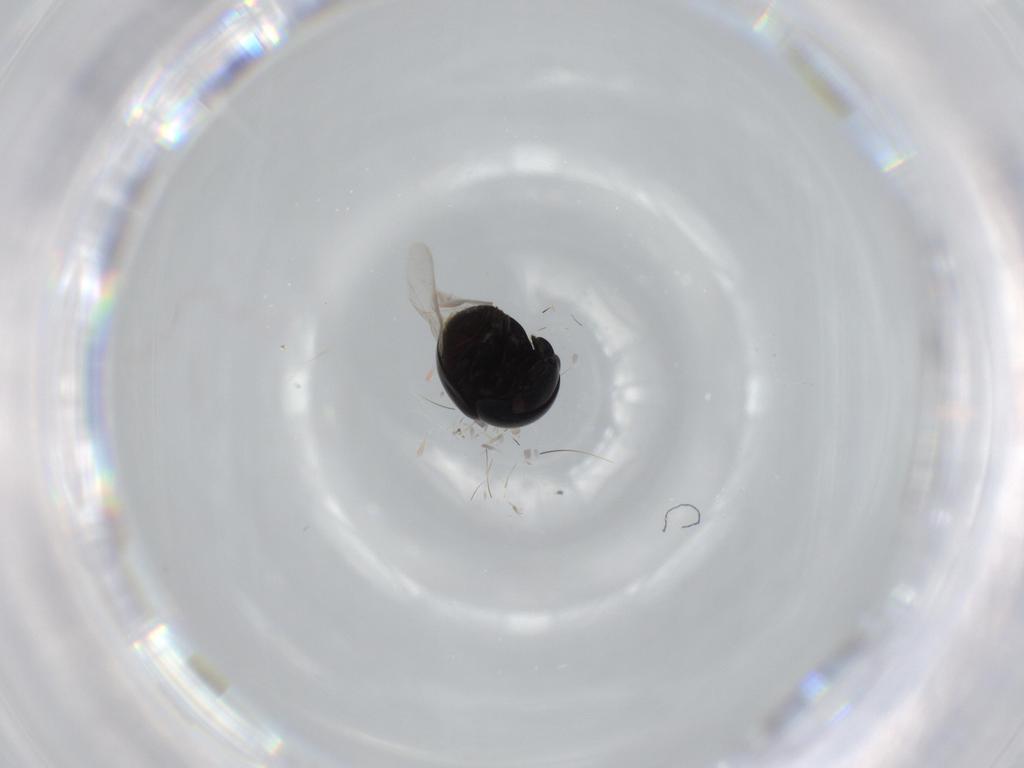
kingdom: Animalia
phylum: Arthropoda
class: Insecta
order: Coleoptera
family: Cybocephalidae
